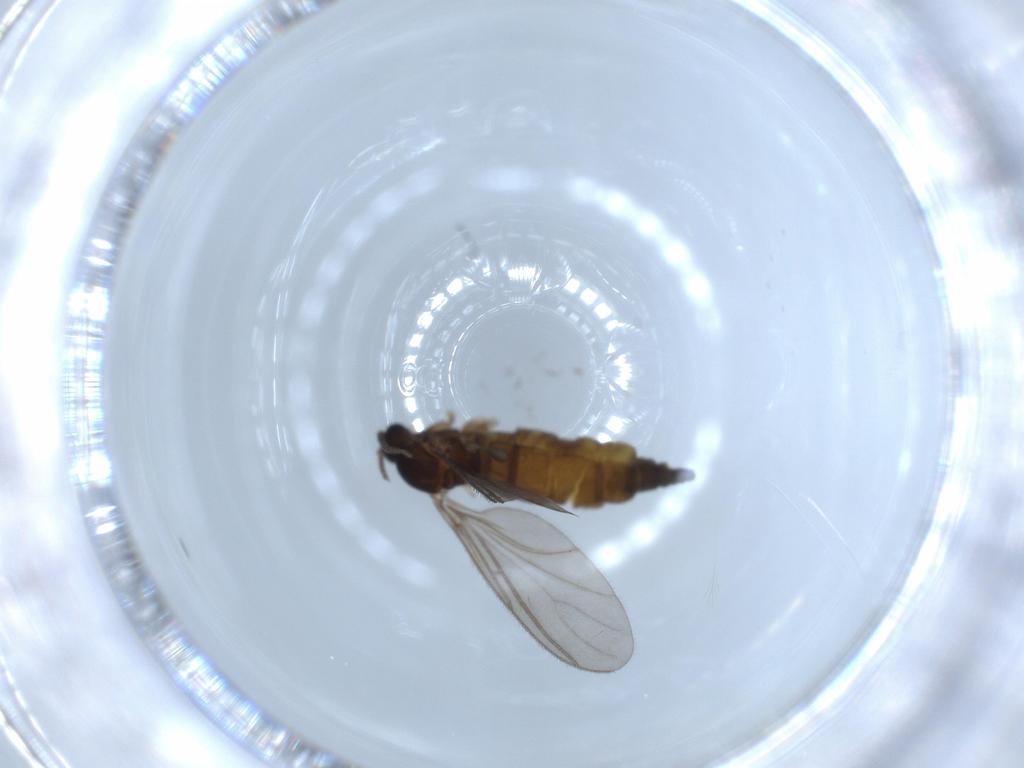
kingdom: Animalia
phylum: Arthropoda
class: Insecta
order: Diptera
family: Sciaridae
